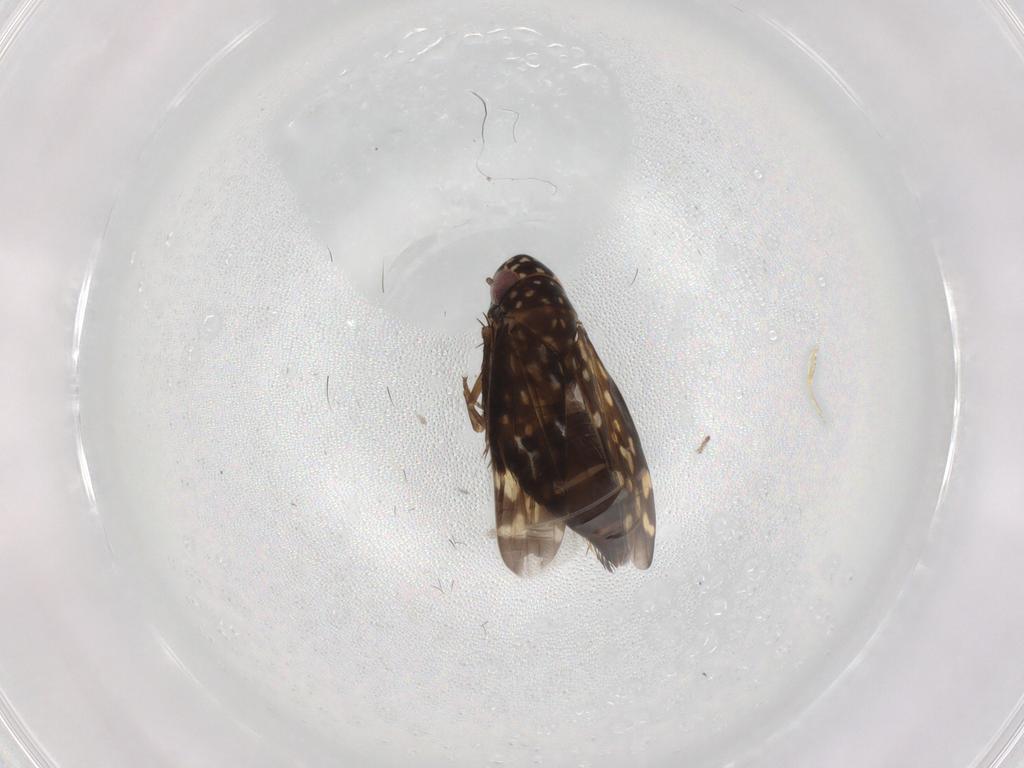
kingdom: Animalia
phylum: Arthropoda
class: Insecta
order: Hemiptera
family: Cicadellidae
